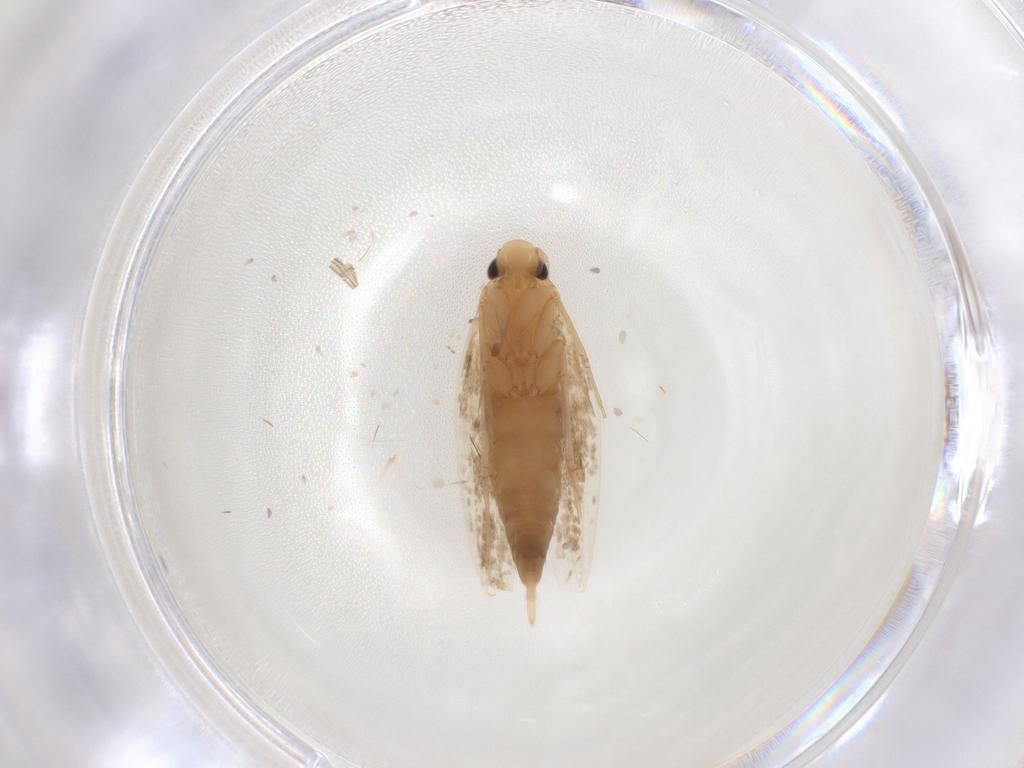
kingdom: Animalia
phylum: Arthropoda
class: Insecta
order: Lepidoptera
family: Tineidae
